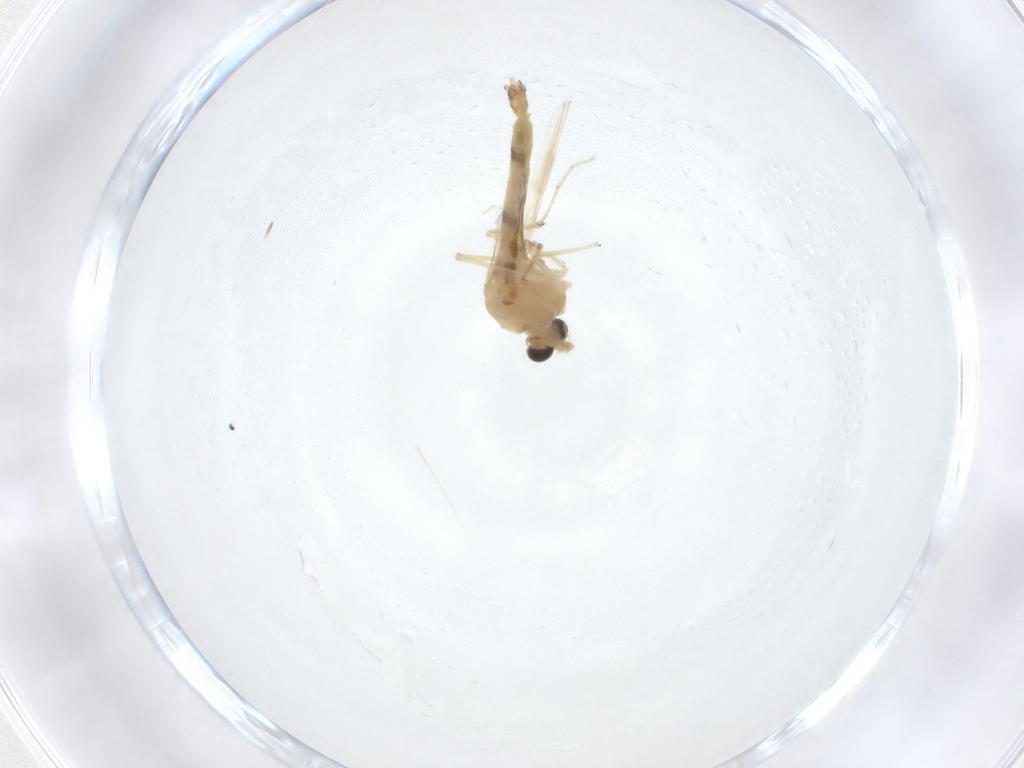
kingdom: Animalia
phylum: Arthropoda
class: Insecta
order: Diptera
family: Chironomidae
